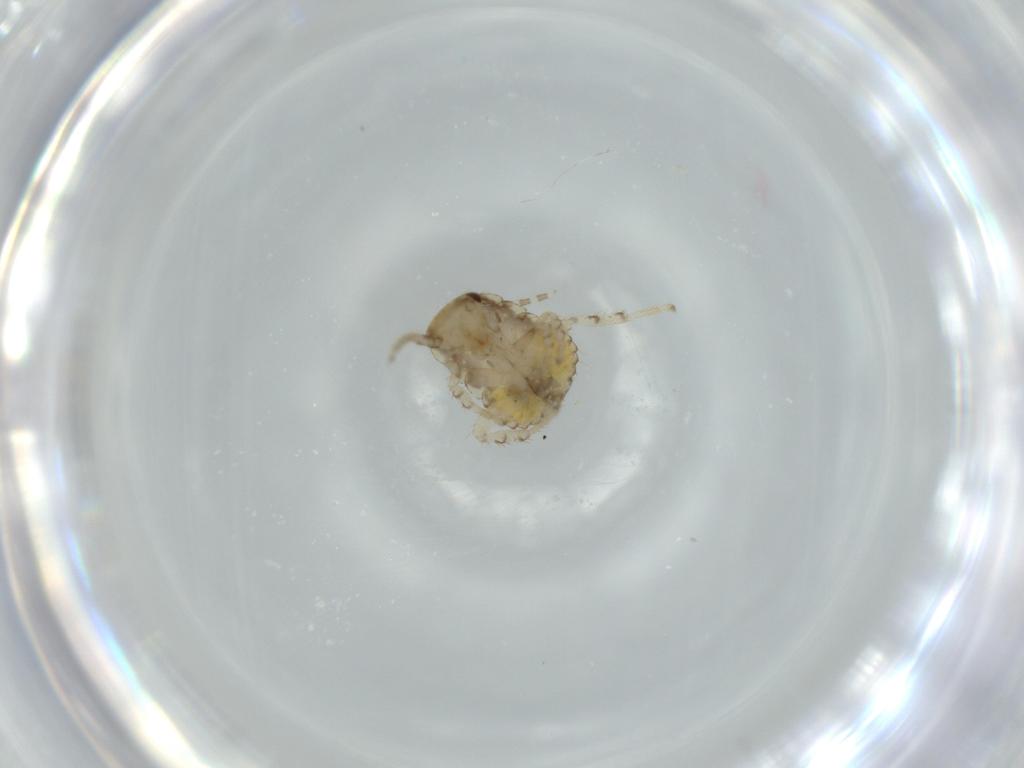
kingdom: Animalia
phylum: Arthropoda
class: Insecta
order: Blattodea
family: Ectobiidae
